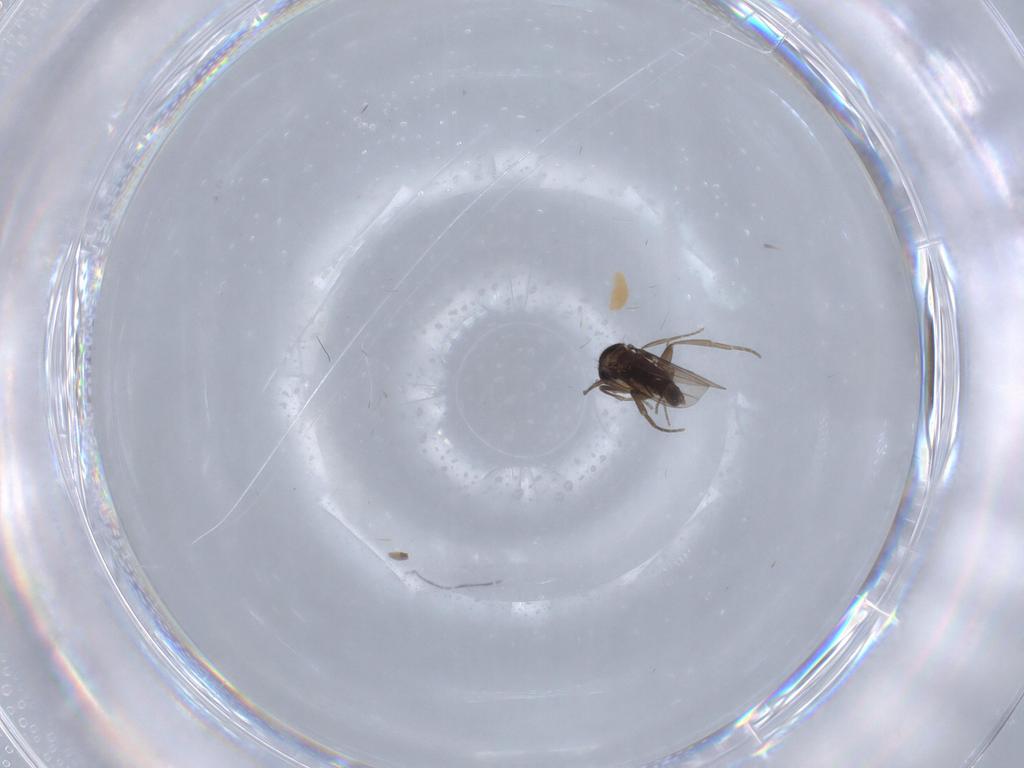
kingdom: Animalia
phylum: Arthropoda
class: Insecta
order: Diptera
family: Phoridae
